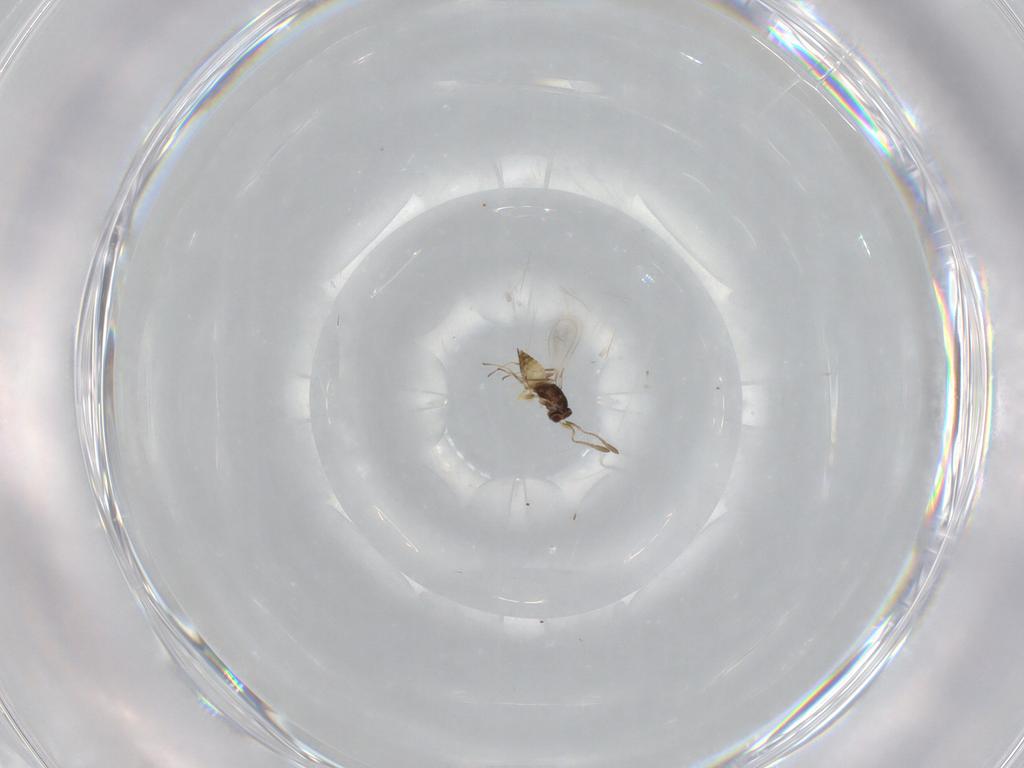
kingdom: Animalia
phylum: Arthropoda
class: Insecta
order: Hymenoptera
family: Mymaridae
